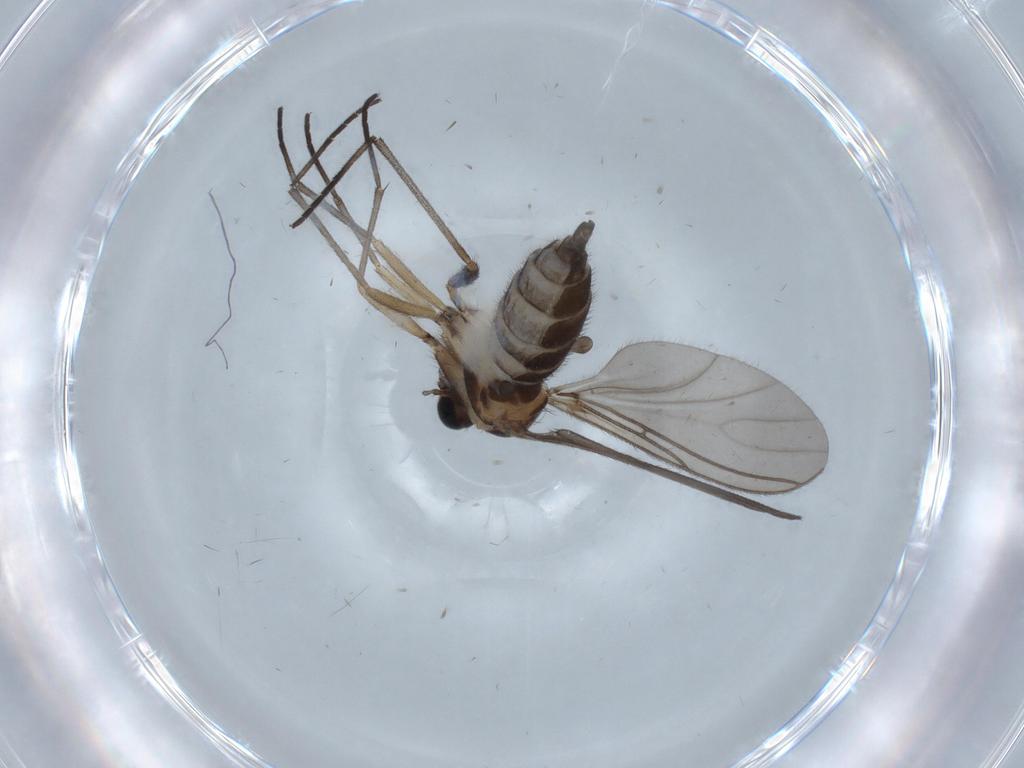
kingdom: Animalia
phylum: Arthropoda
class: Insecta
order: Diptera
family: Sciaridae
